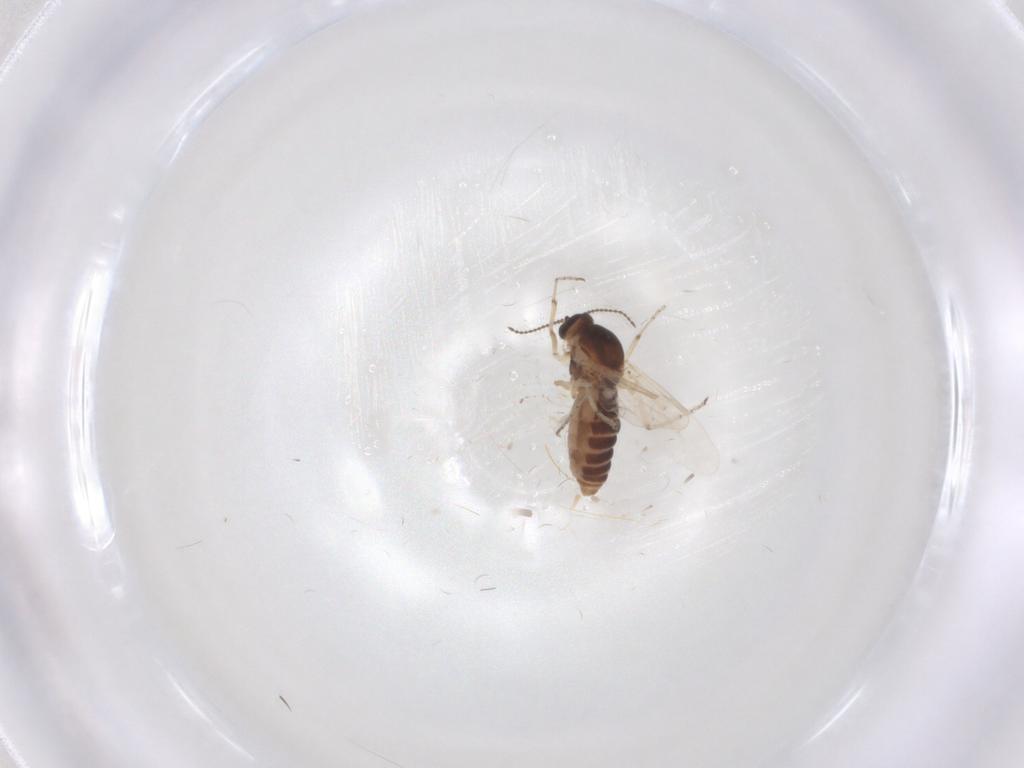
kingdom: Animalia
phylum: Arthropoda
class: Insecta
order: Diptera
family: Ceratopogonidae
